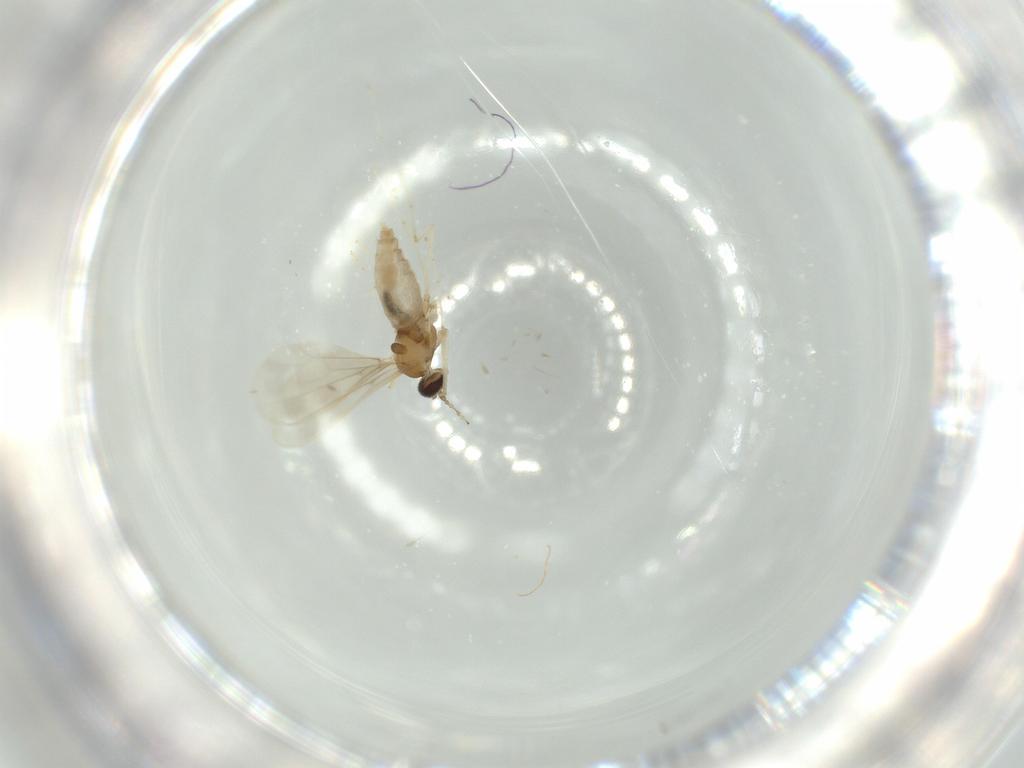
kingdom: Animalia
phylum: Arthropoda
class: Insecta
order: Diptera
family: Cecidomyiidae
